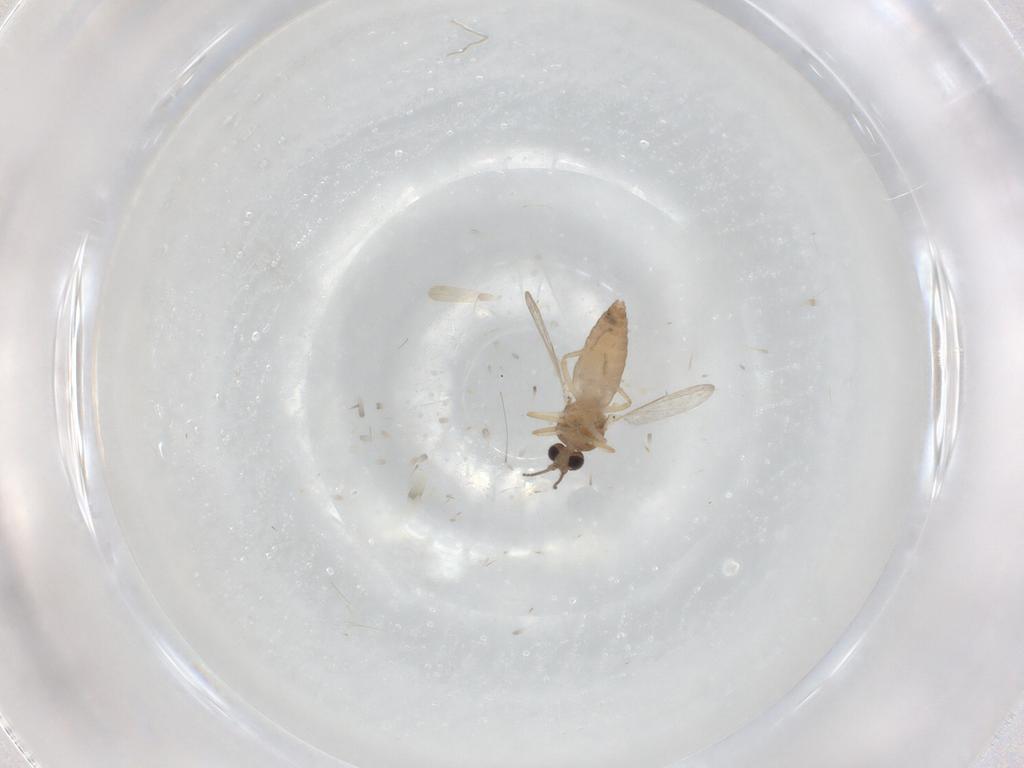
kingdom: Animalia
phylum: Arthropoda
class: Insecta
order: Diptera
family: Ceratopogonidae
